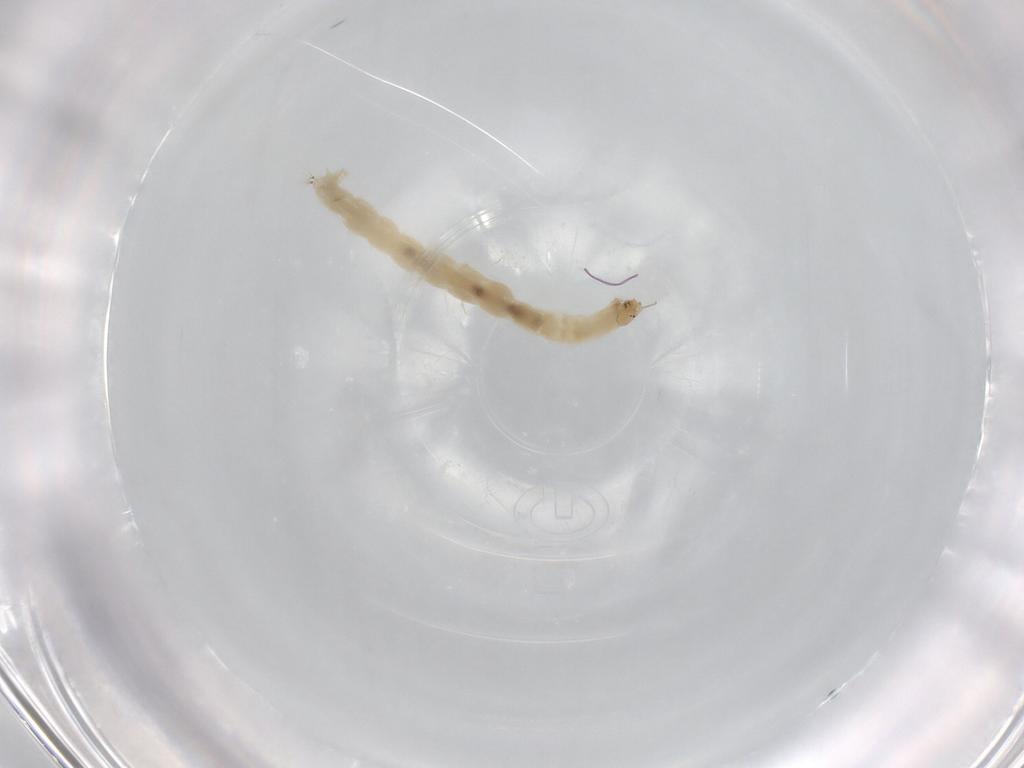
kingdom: Animalia
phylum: Arthropoda
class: Insecta
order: Diptera
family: Chironomidae
